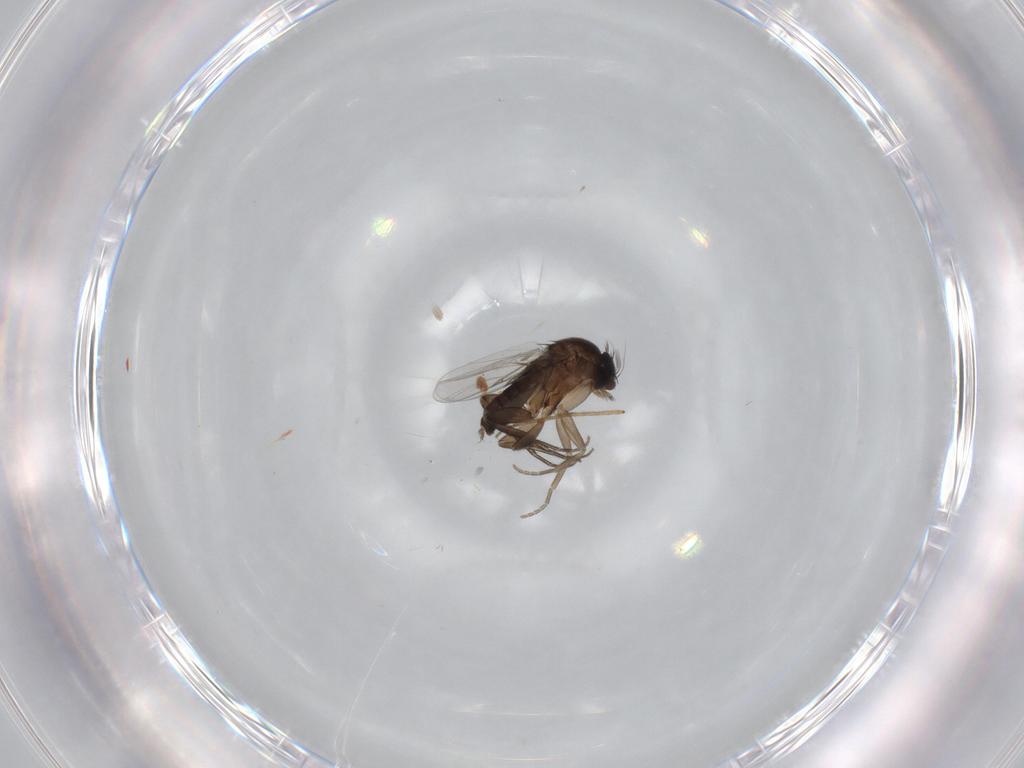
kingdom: Animalia
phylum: Arthropoda
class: Insecta
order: Diptera
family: Phoridae
